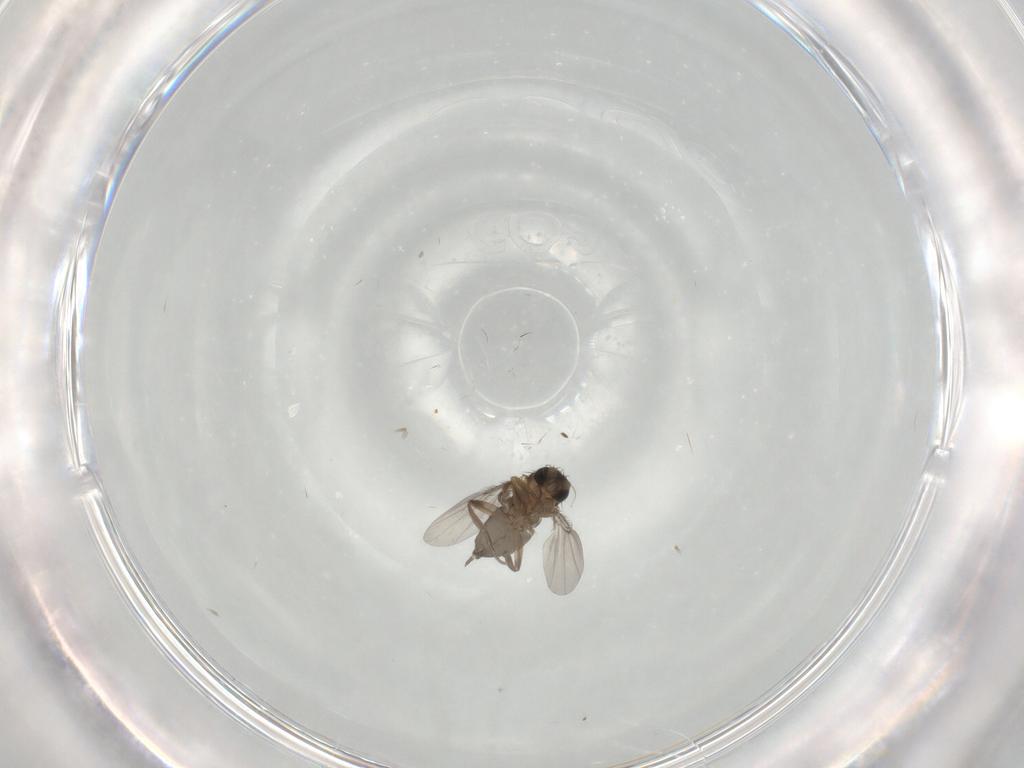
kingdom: Animalia
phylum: Arthropoda
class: Insecta
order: Diptera
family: Phoridae
